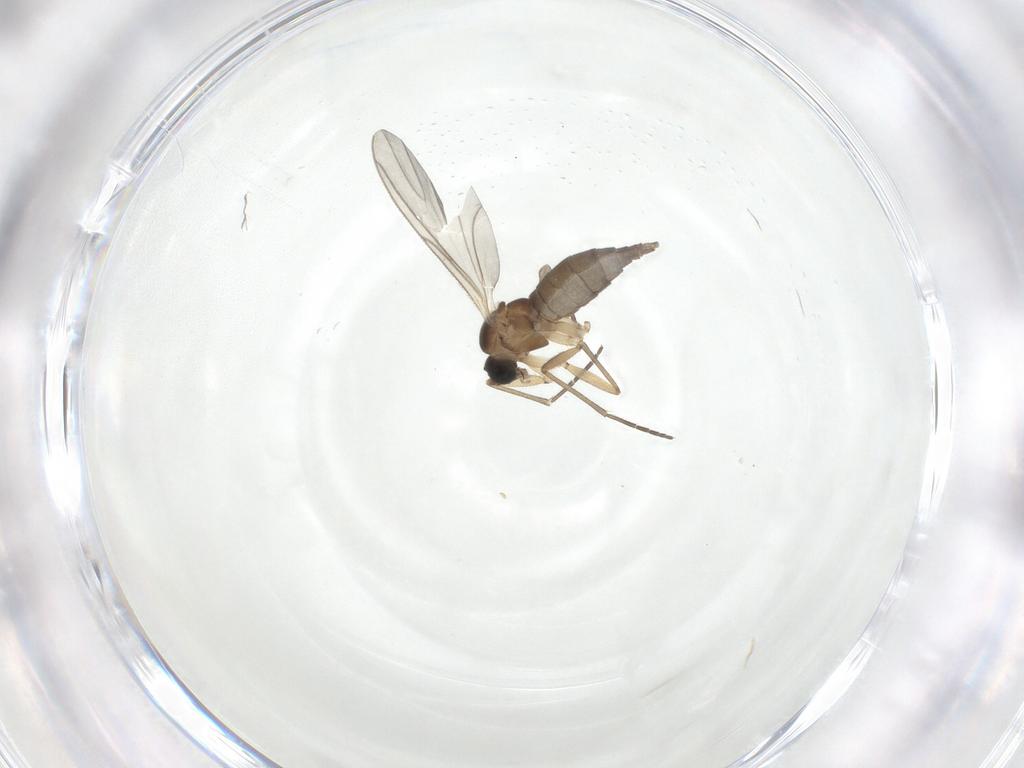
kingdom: Animalia
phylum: Arthropoda
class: Insecta
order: Diptera
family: Sciaridae
